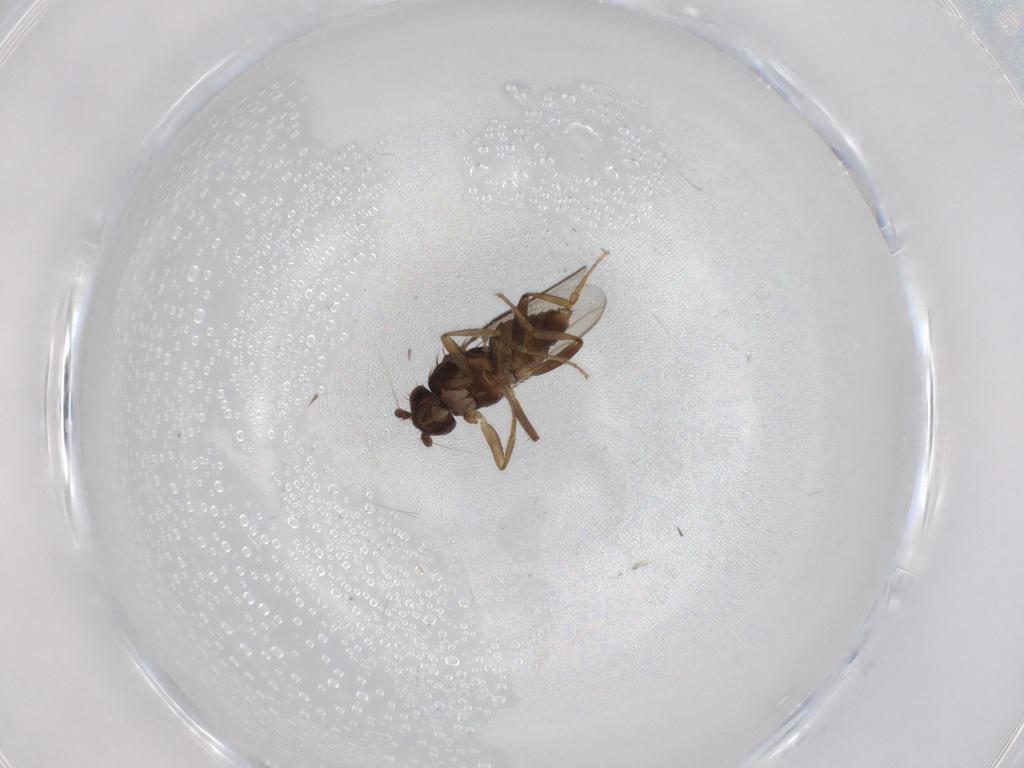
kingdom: Animalia
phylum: Arthropoda
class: Insecta
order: Diptera
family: Sphaeroceridae
